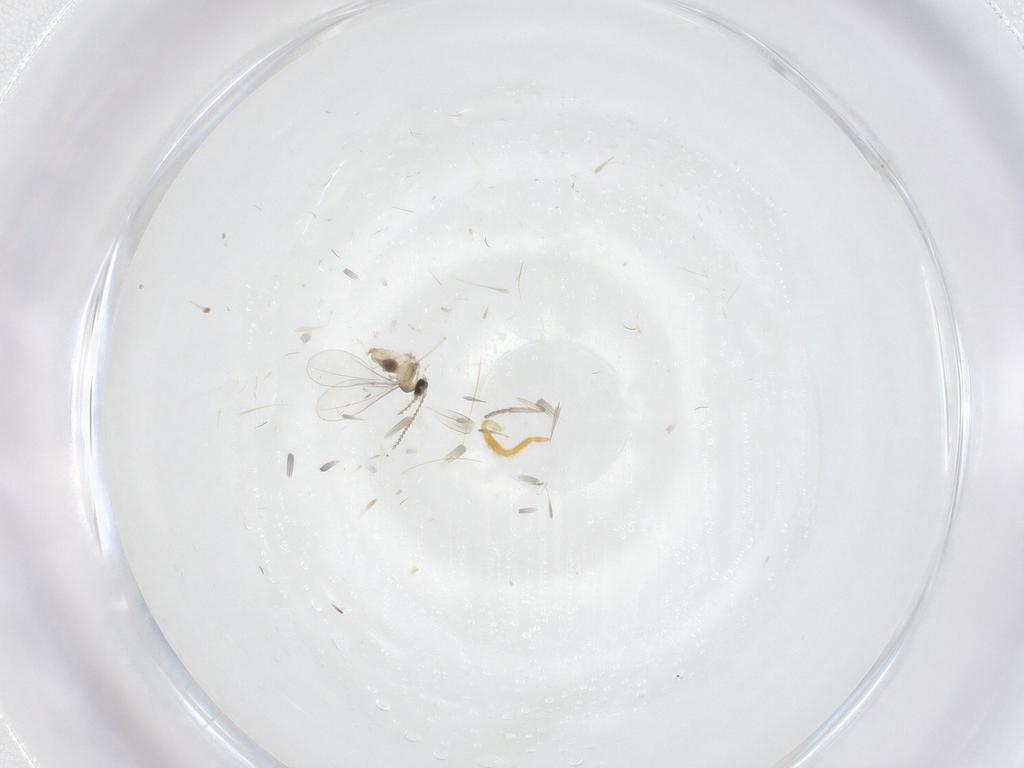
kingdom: Animalia
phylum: Arthropoda
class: Insecta
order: Diptera
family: Cecidomyiidae
